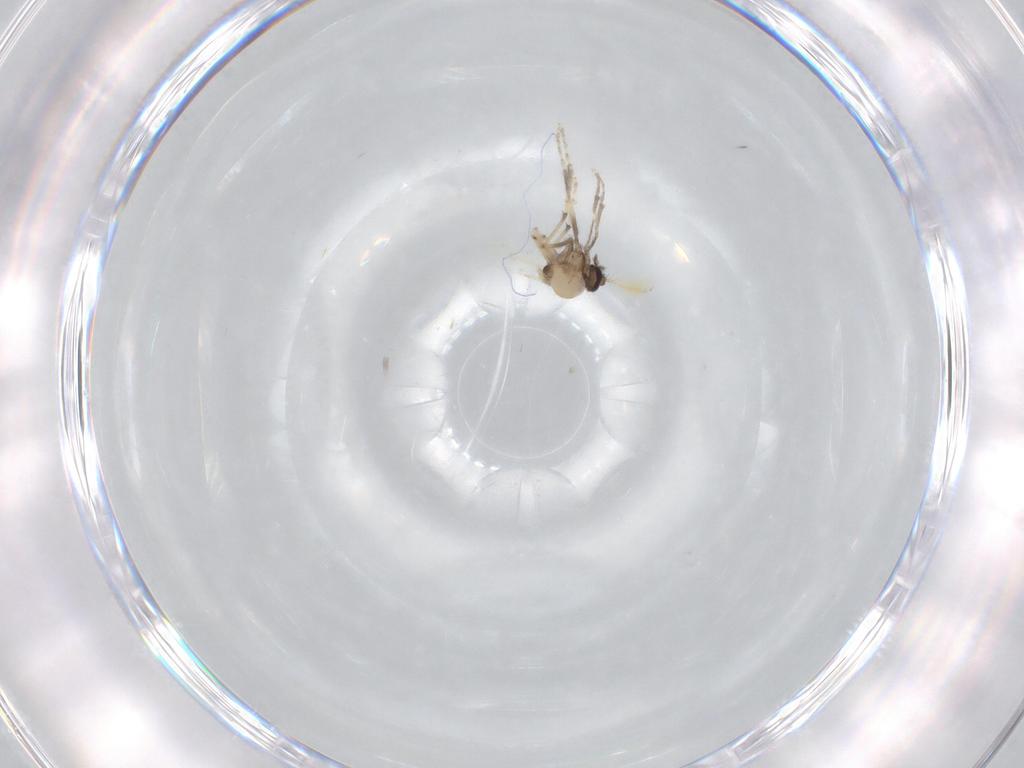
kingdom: Animalia
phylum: Arthropoda
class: Insecta
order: Diptera
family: Ceratopogonidae
